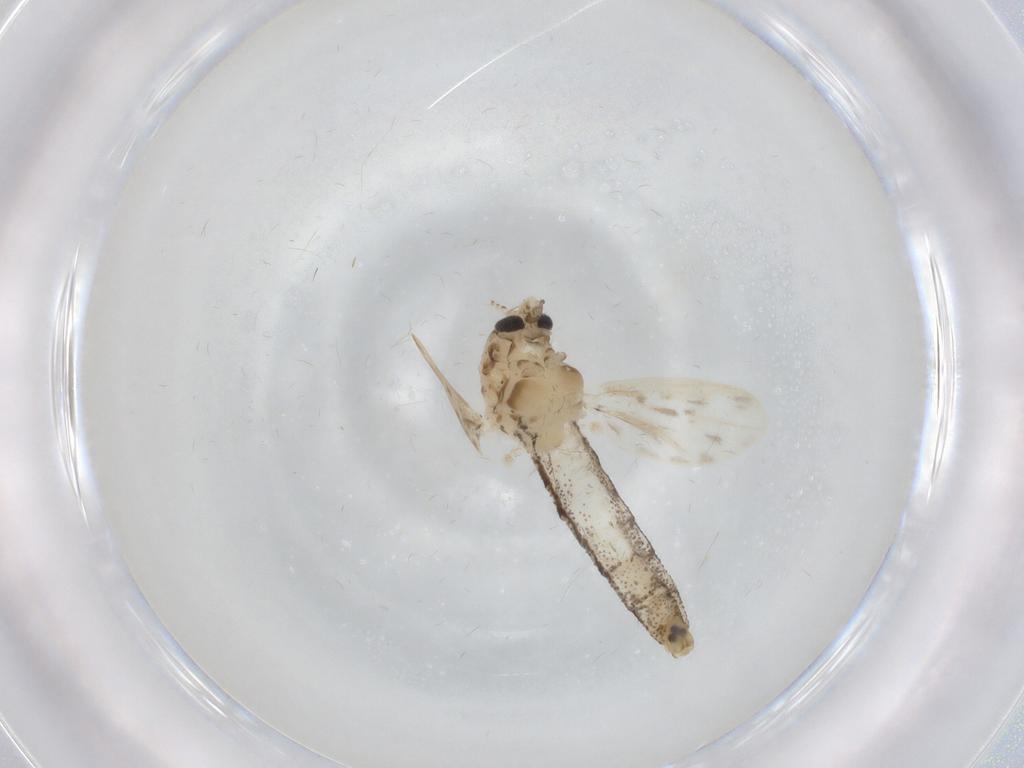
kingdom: Animalia
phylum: Arthropoda
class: Insecta
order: Diptera
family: Chaoboridae
